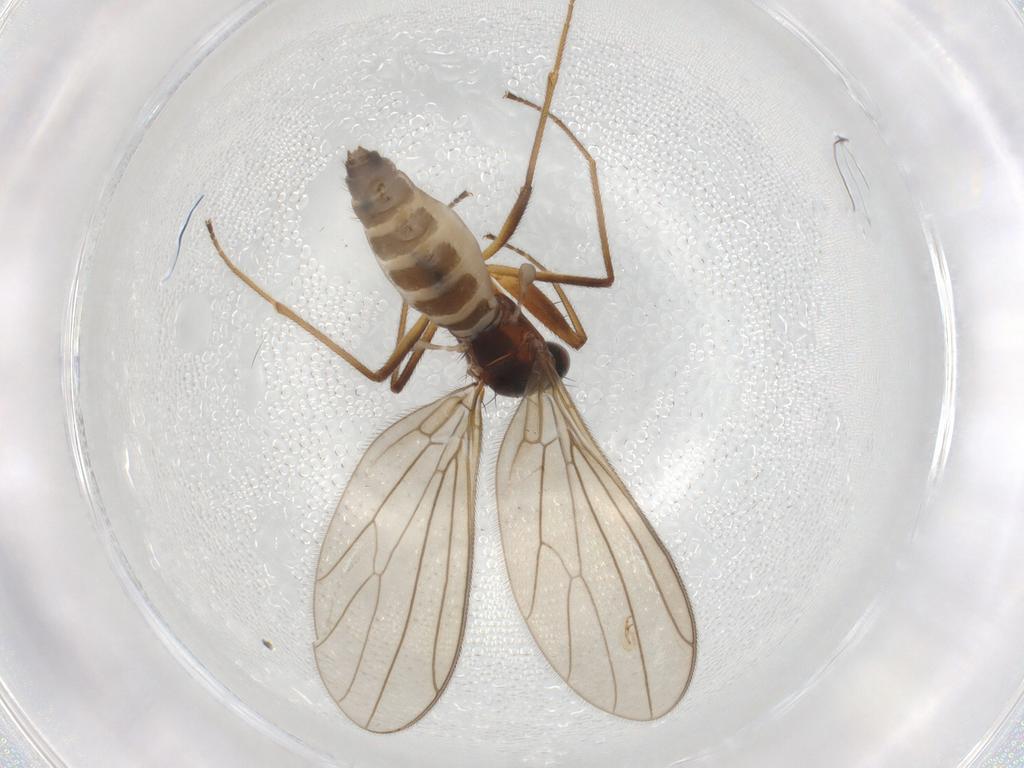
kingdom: Animalia
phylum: Arthropoda
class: Insecta
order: Diptera
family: Empididae
